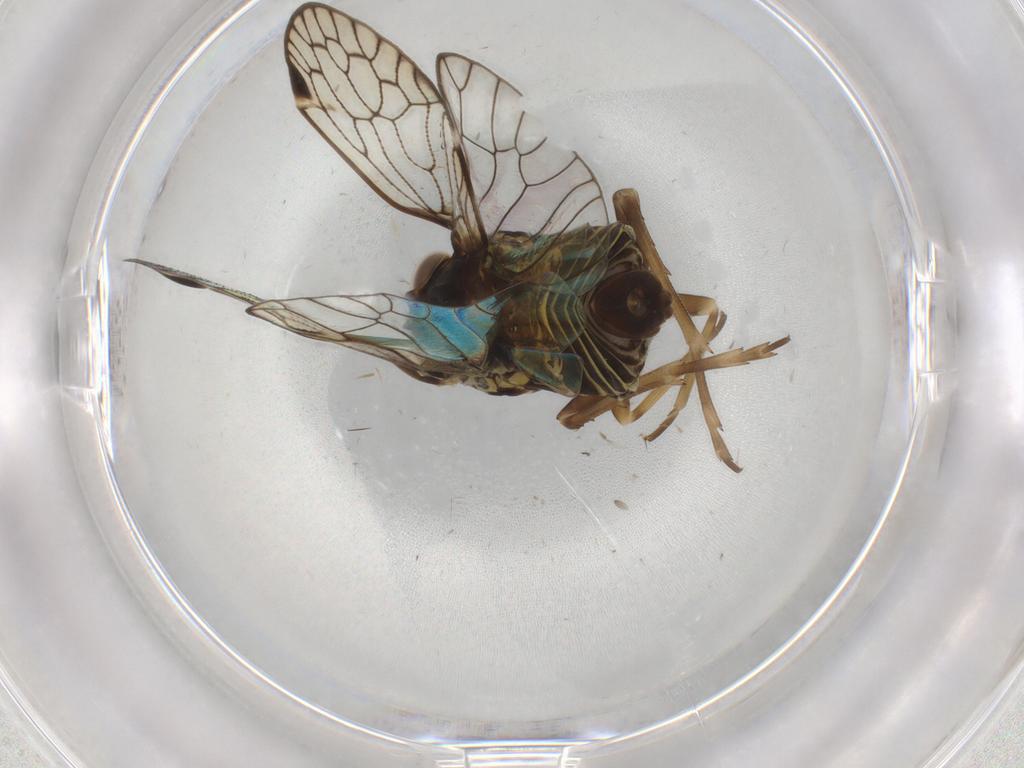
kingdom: Animalia
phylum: Arthropoda
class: Insecta
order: Hemiptera
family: Cixiidae
